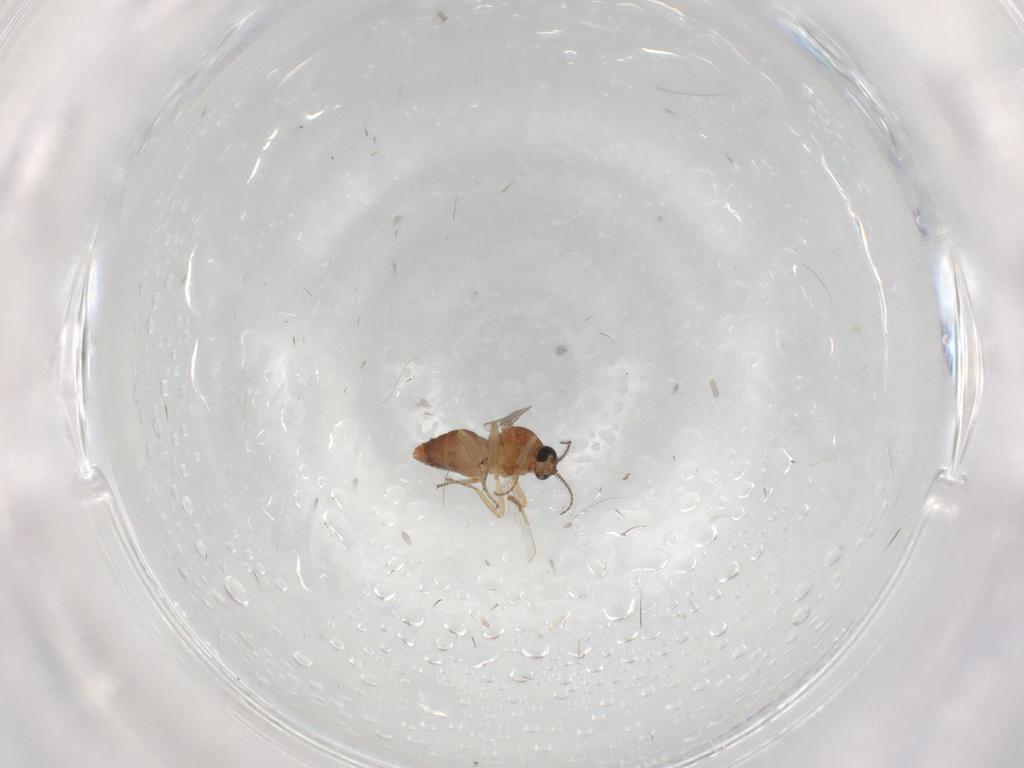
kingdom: Animalia
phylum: Arthropoda
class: Insecta
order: Diptera
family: Ceratopogonidae
